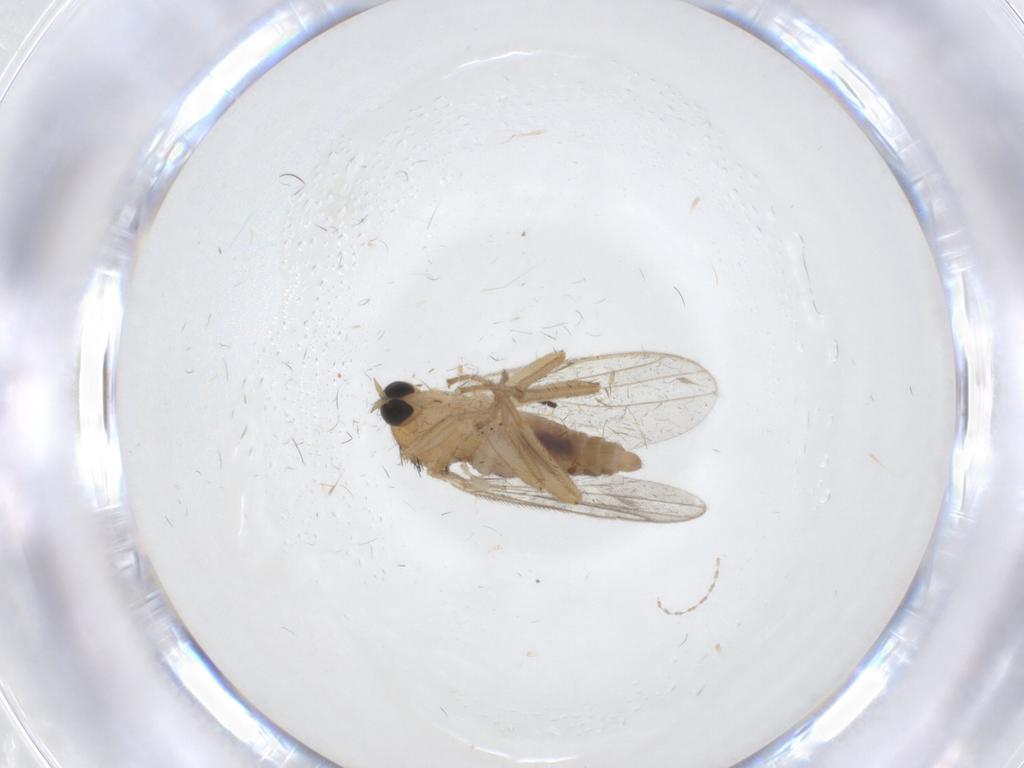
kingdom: Animalia
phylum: Arthropoda
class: Insecta
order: Diptera
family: Hybotidae
